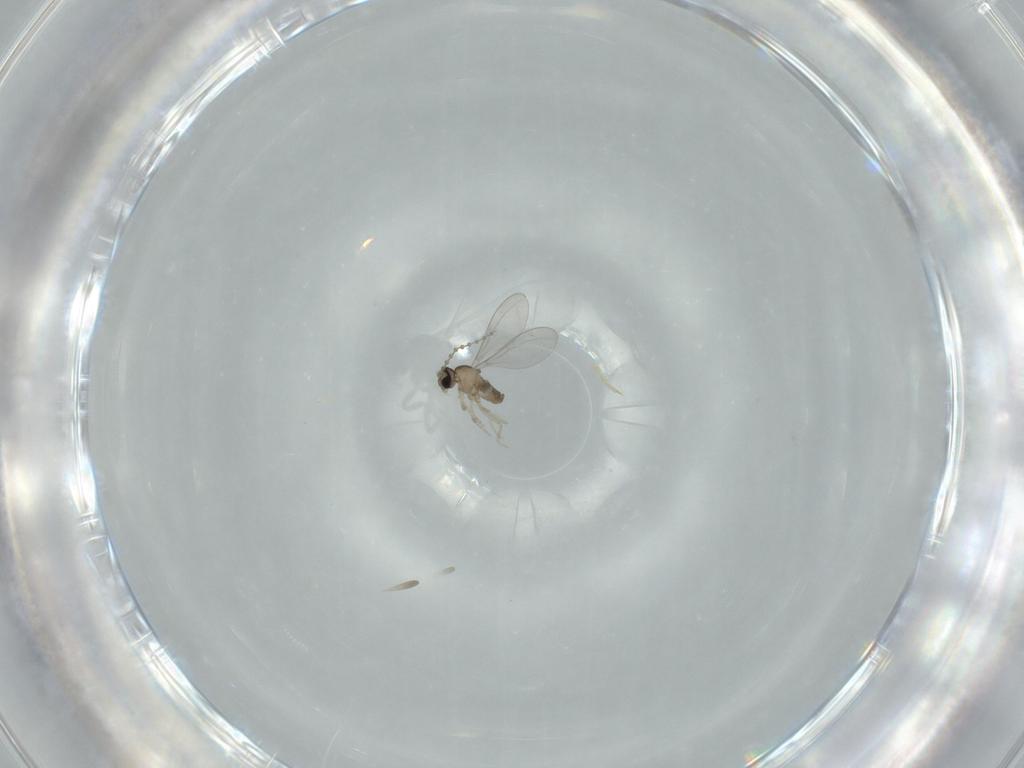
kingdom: Animalia
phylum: Arthropoda
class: Insecta
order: Diptera
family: Cecidomyiidae
